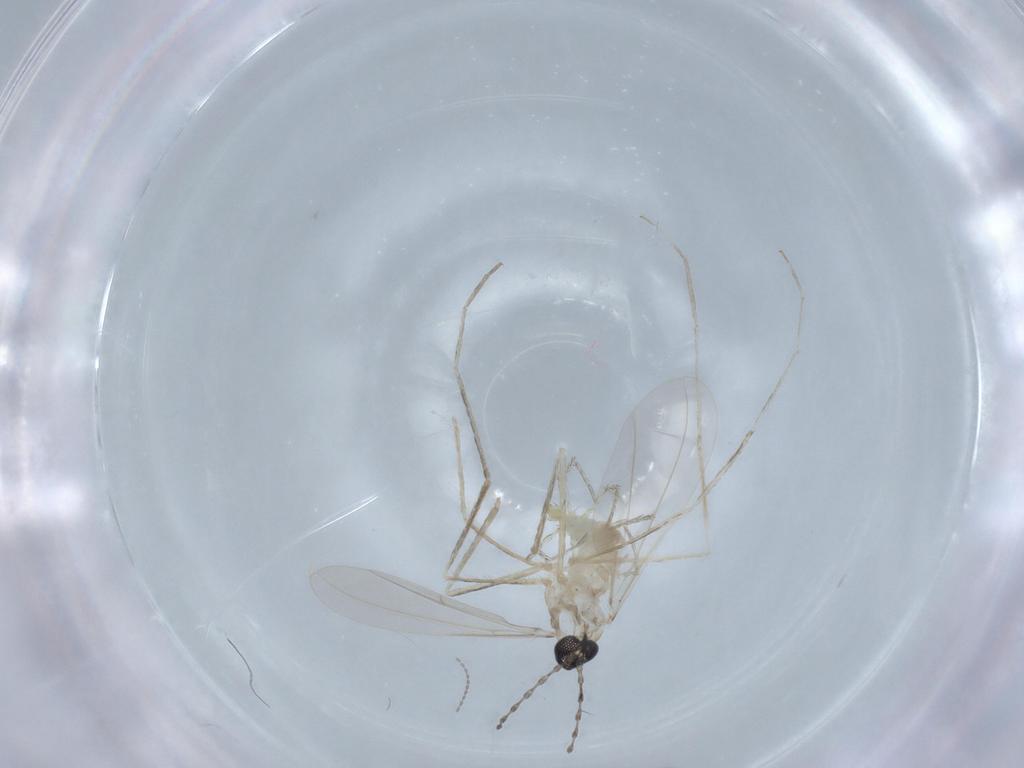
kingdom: Animalia
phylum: Arthropoda
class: Insecta
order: Diptera
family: Cecidomyiidae
